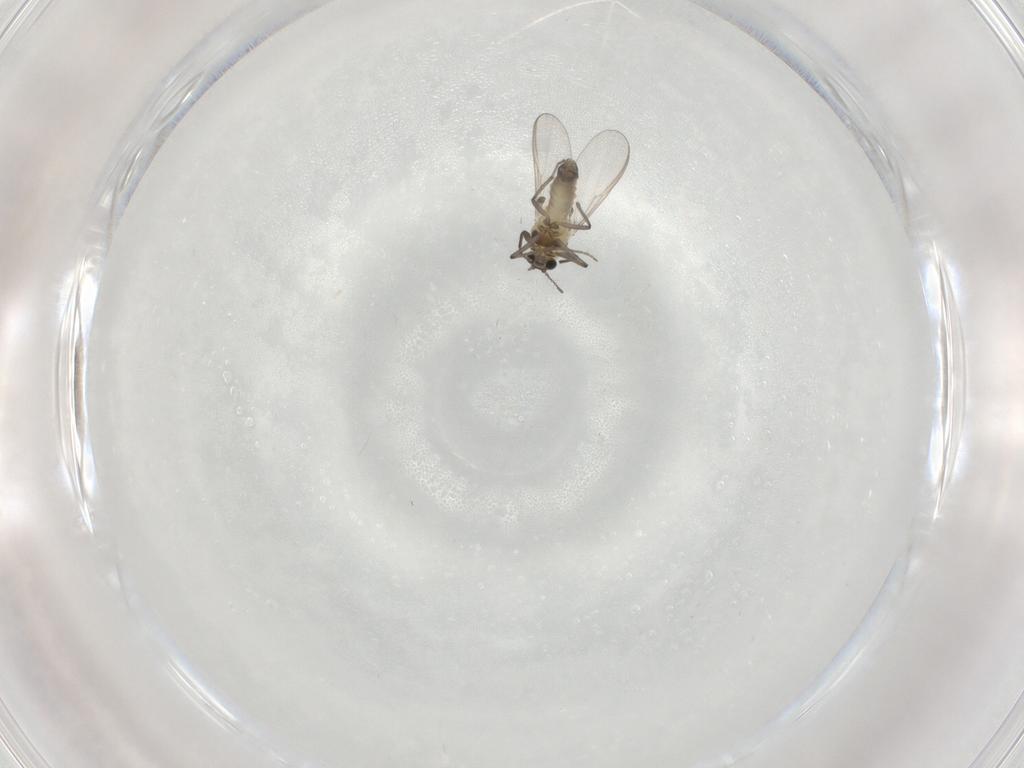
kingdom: Animalia
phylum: Arthropoda
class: Insecta
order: Diptera
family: Chironomidae
